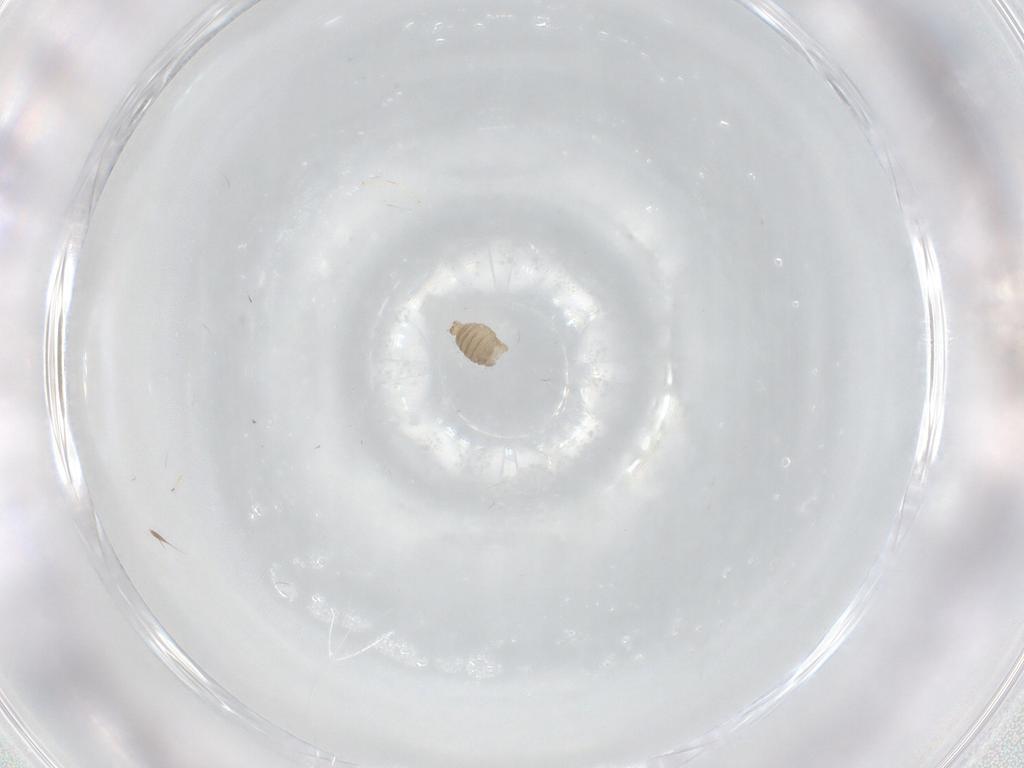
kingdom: Animalia
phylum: Arthropoda
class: Insecta
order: Diptera
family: Cecidomyiidae
